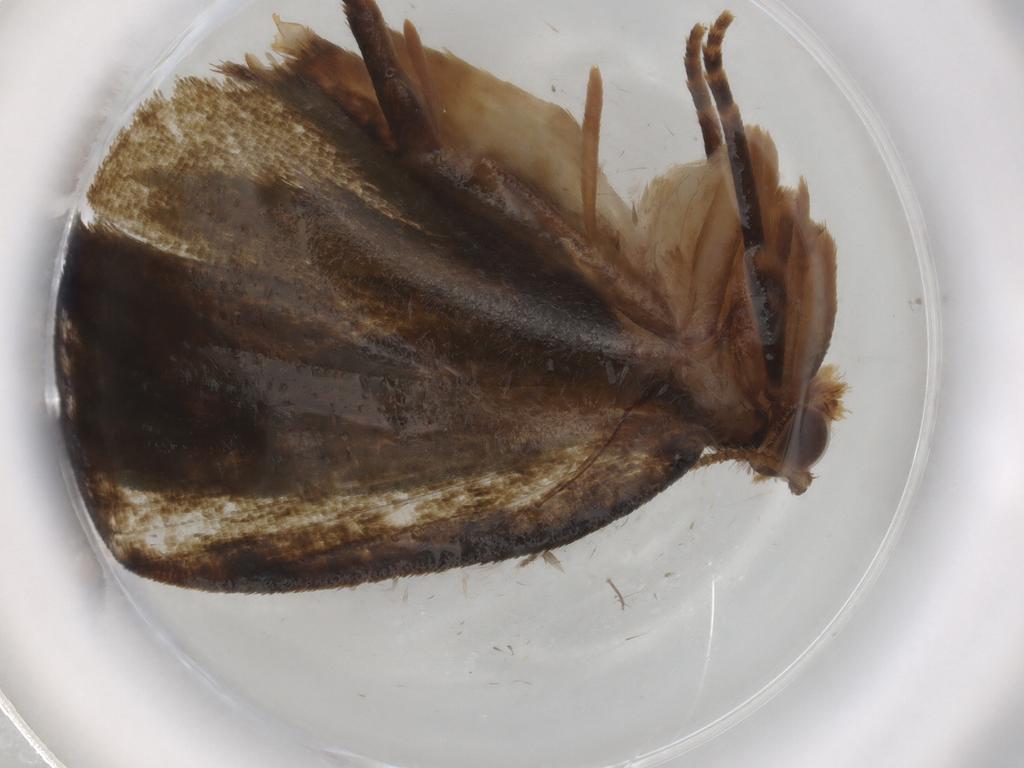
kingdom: Animalia
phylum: Arthropoda
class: Insecta
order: Lepidoptera
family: Geometridae
